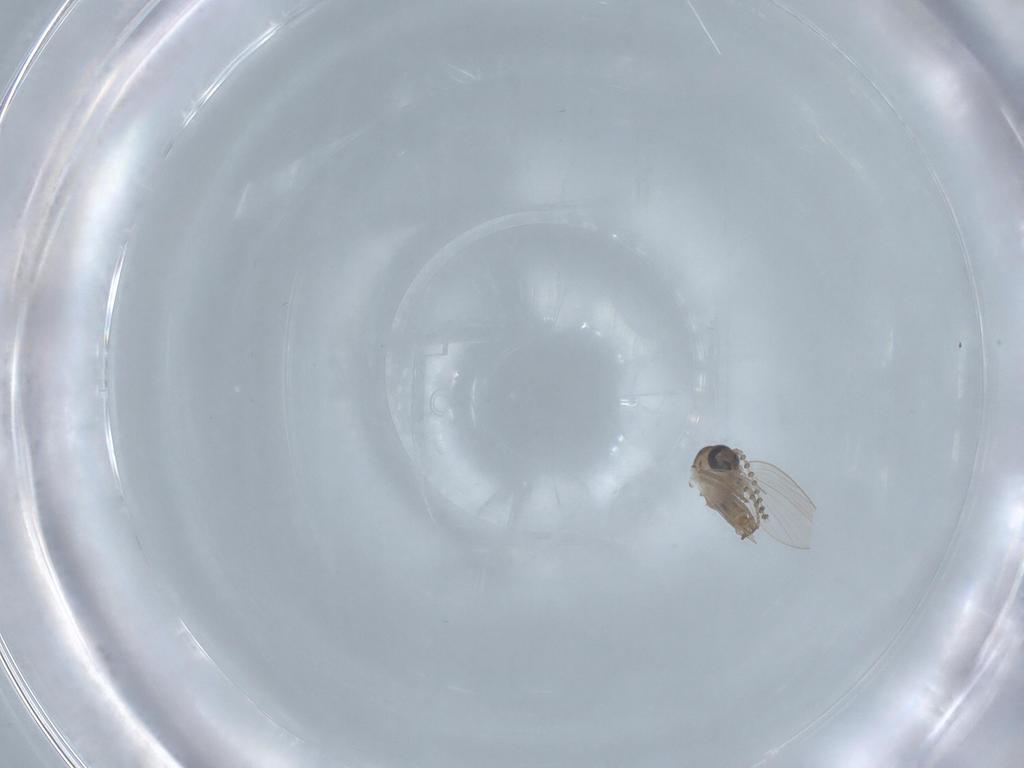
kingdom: Animalia
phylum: Arthropoda
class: Insecta
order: Diptera
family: Psychodidae
